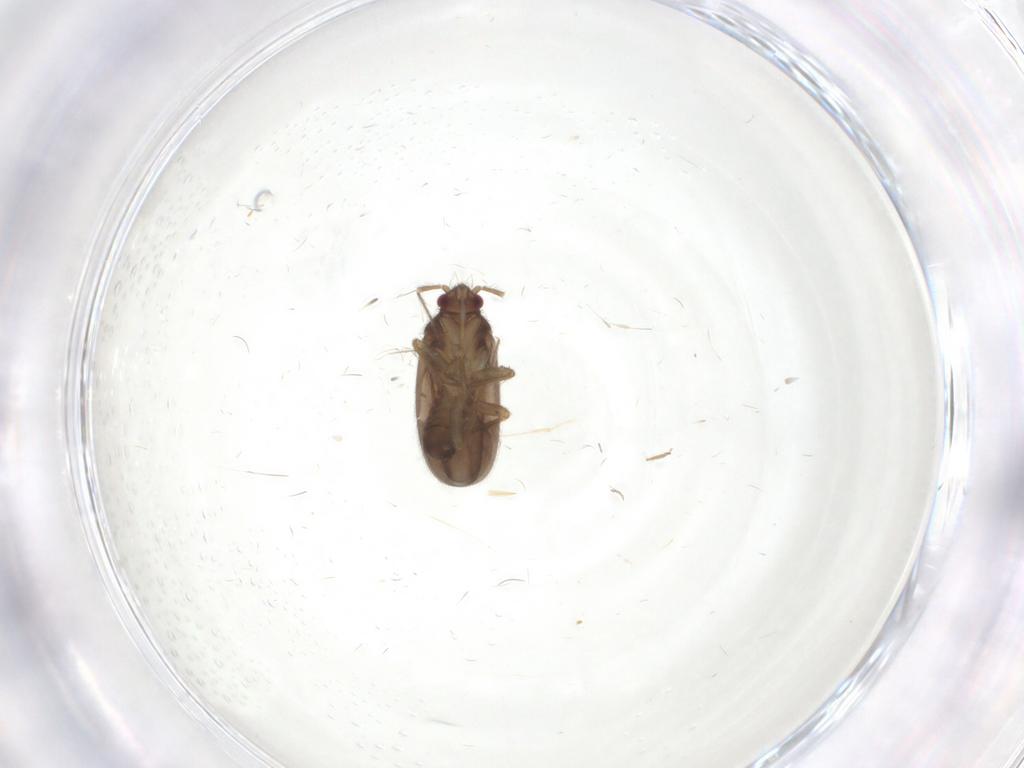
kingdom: Animalia
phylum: Arthropoda
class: Insecta
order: Hemiptera
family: Ceratocombidae
